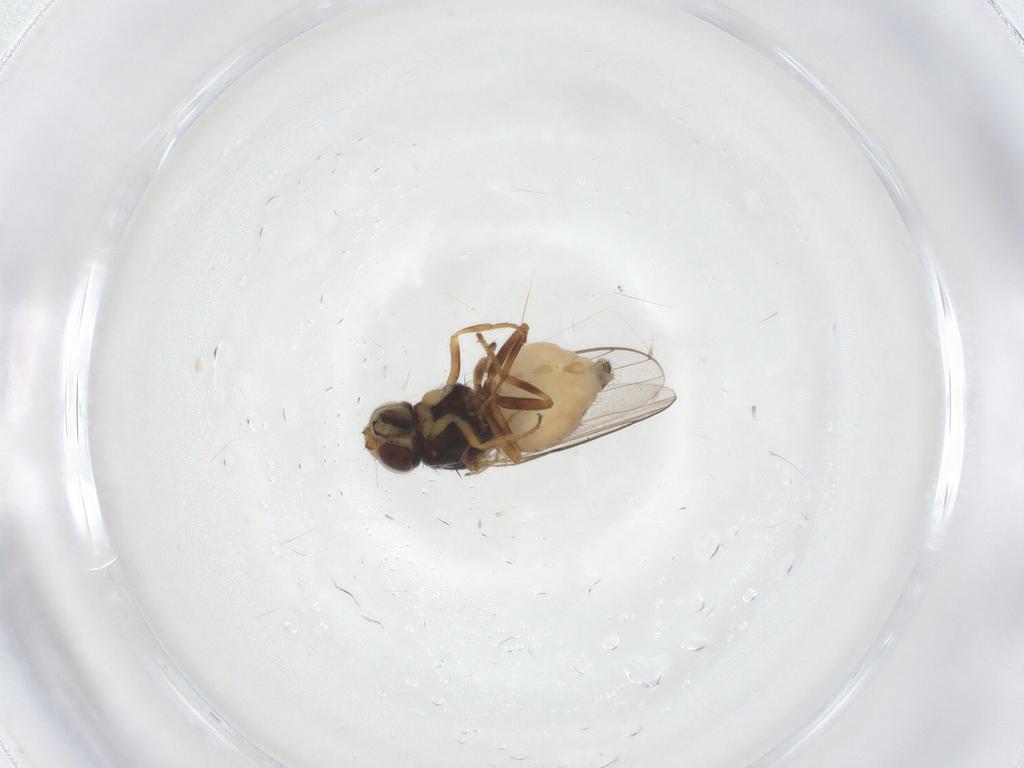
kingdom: Animalia
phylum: Arthropoda
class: Insecta
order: Diptera
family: Chloropidae
